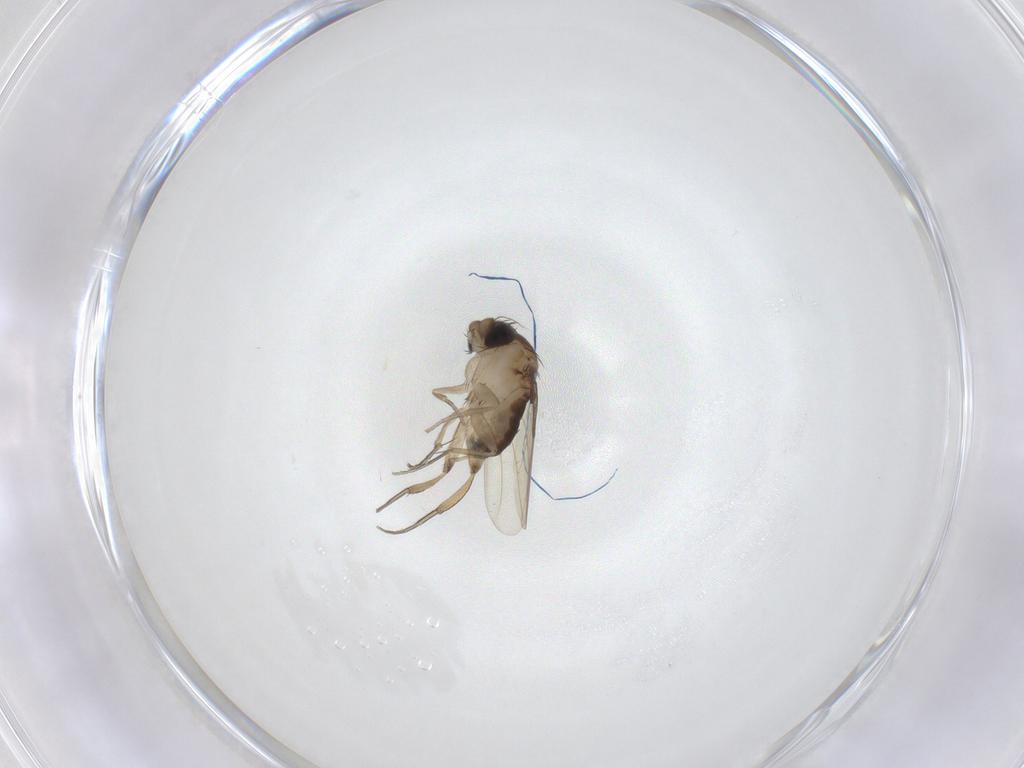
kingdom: Animalia
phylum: Arthropoda
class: Insecta
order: Diptera
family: Phoridae
